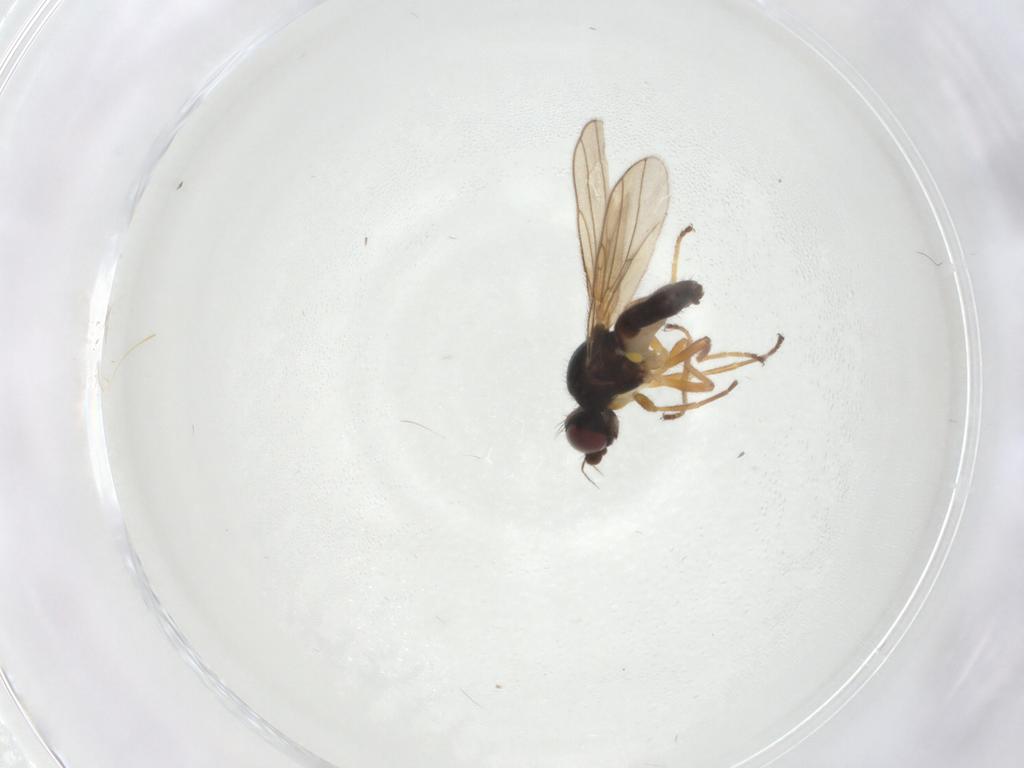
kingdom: Animalia
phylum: Arthropoda
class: Insecta
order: Diptera
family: Chloropidae
